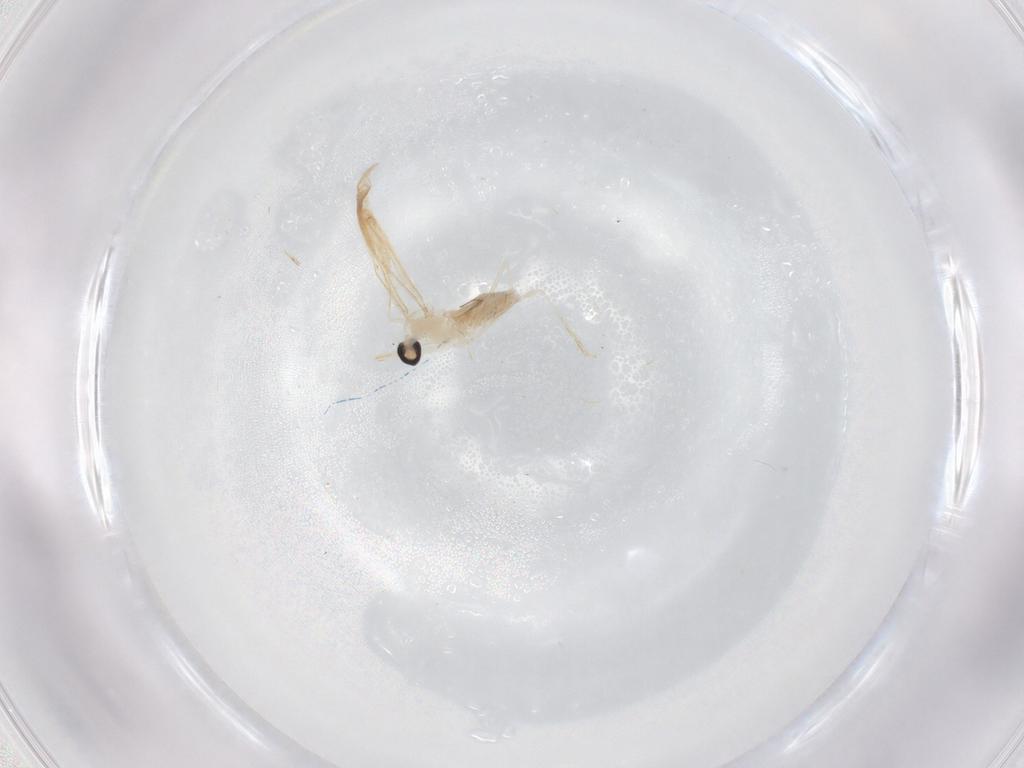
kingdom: Animalia
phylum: Arthropoda
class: Insecta
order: Diptera
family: Cecidomyiidae
